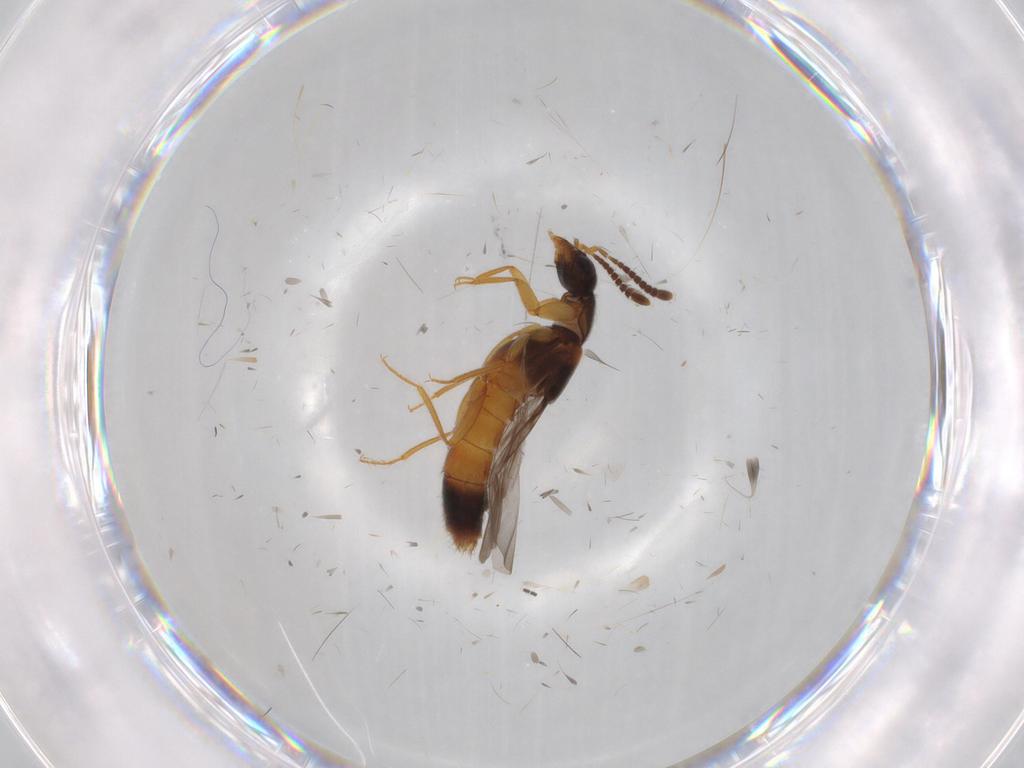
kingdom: Animalia
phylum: Arthropoda
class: Insecta
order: Coleoptera
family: Staphylinidae
